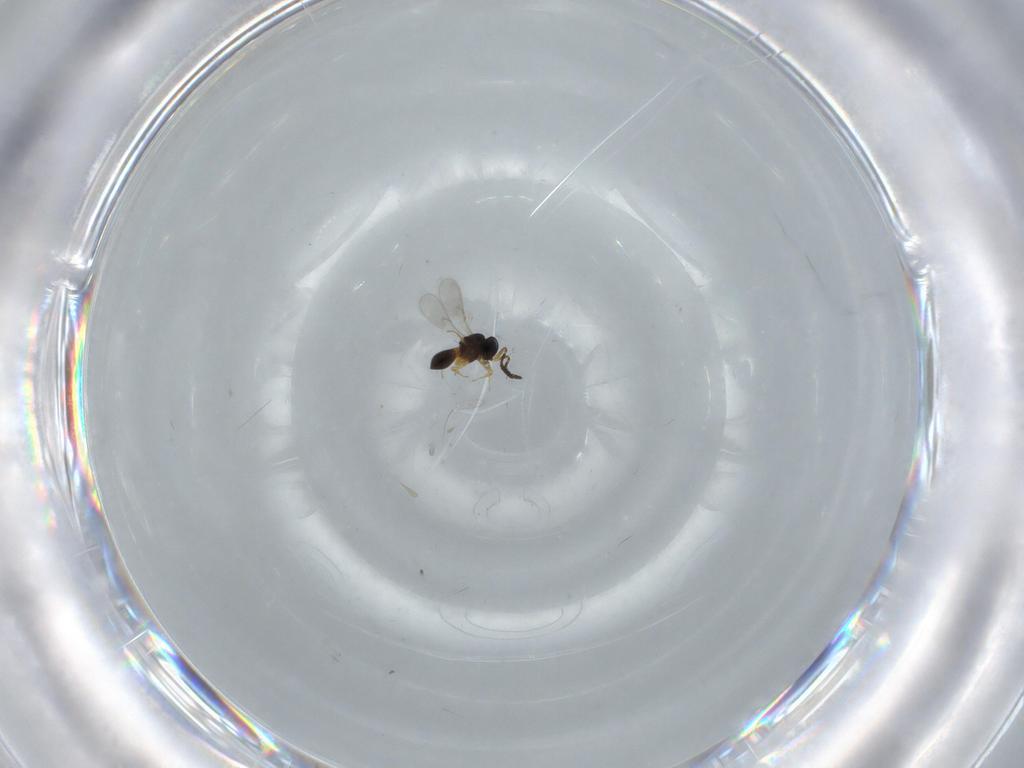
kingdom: Animalia
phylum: Arthropoda
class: Insecta
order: Hymenoptera
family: Scelionidae
